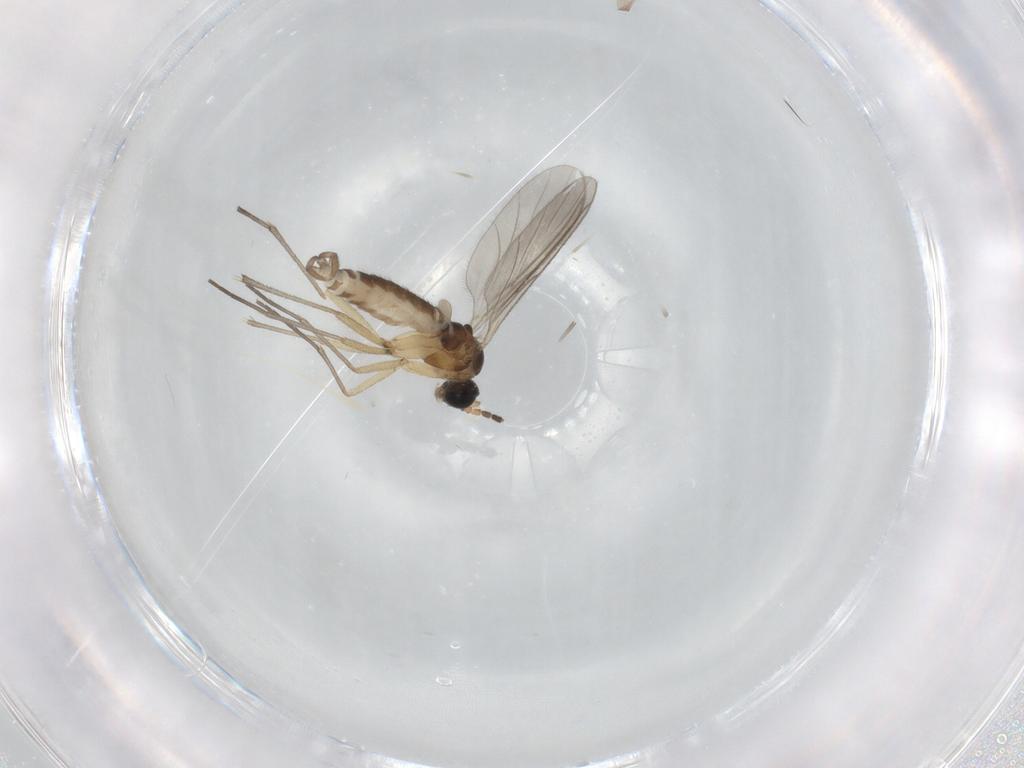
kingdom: Animalia
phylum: Arthropoda
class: Insecta
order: Diptera
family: Sciaridae
